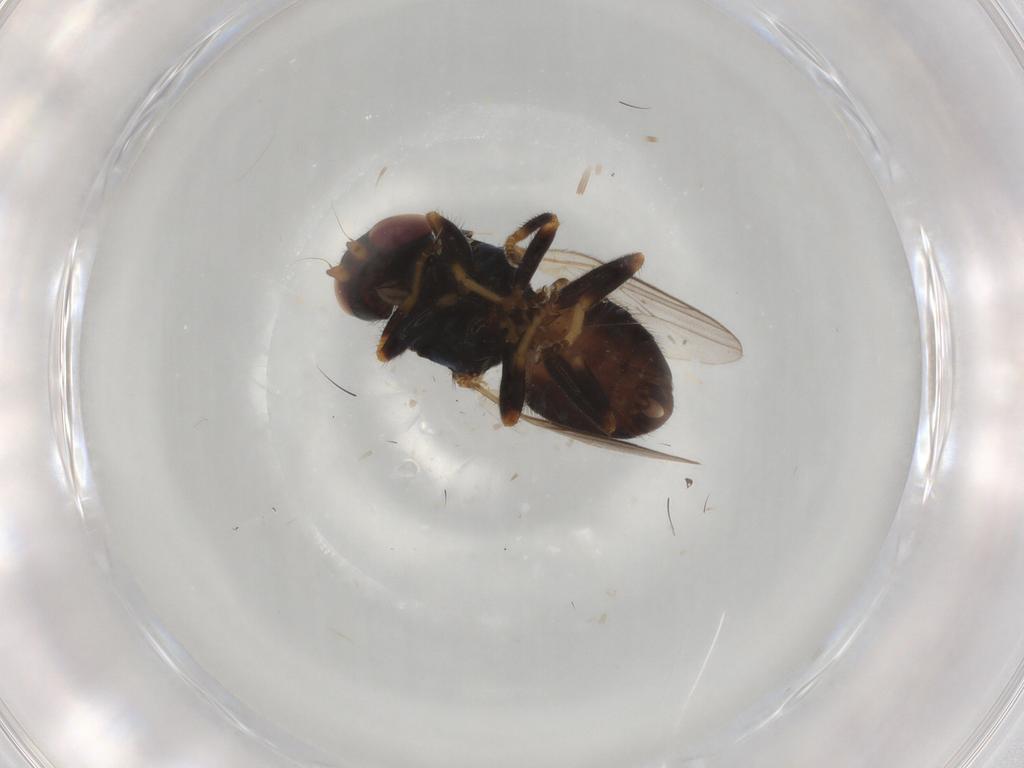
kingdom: Animalia
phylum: Arthropoda
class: Insecta
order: Diptera
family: Chloropidae
